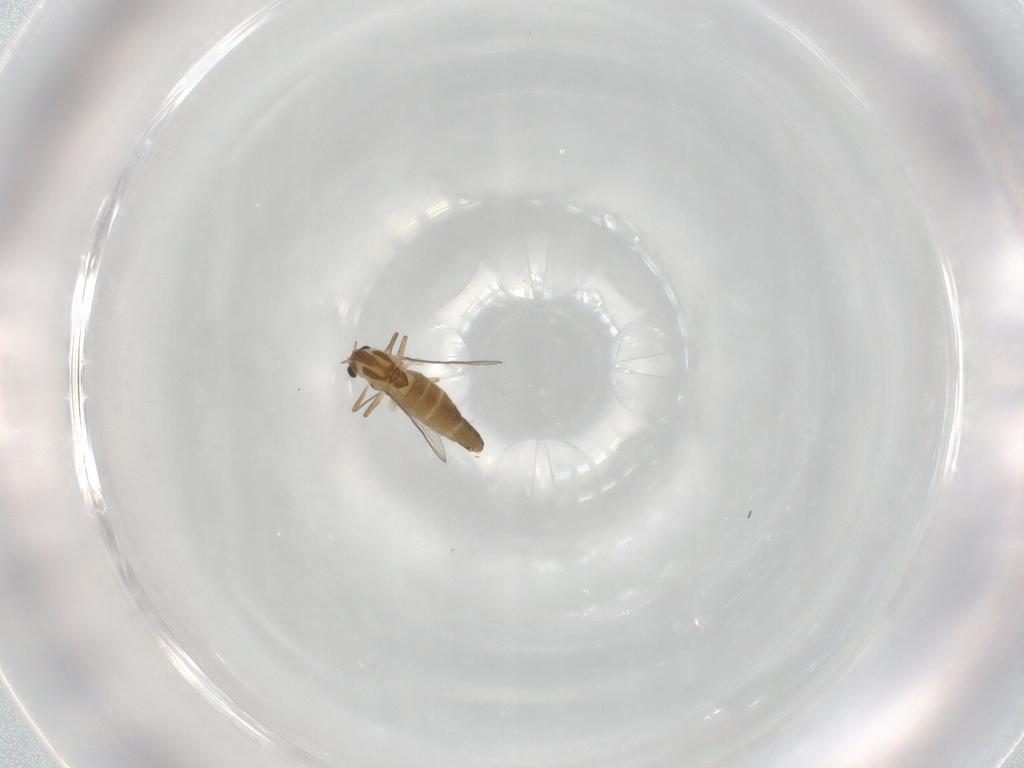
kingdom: Animalia
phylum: Arthropoda
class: Insecta
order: Diptera
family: Chironomidae
